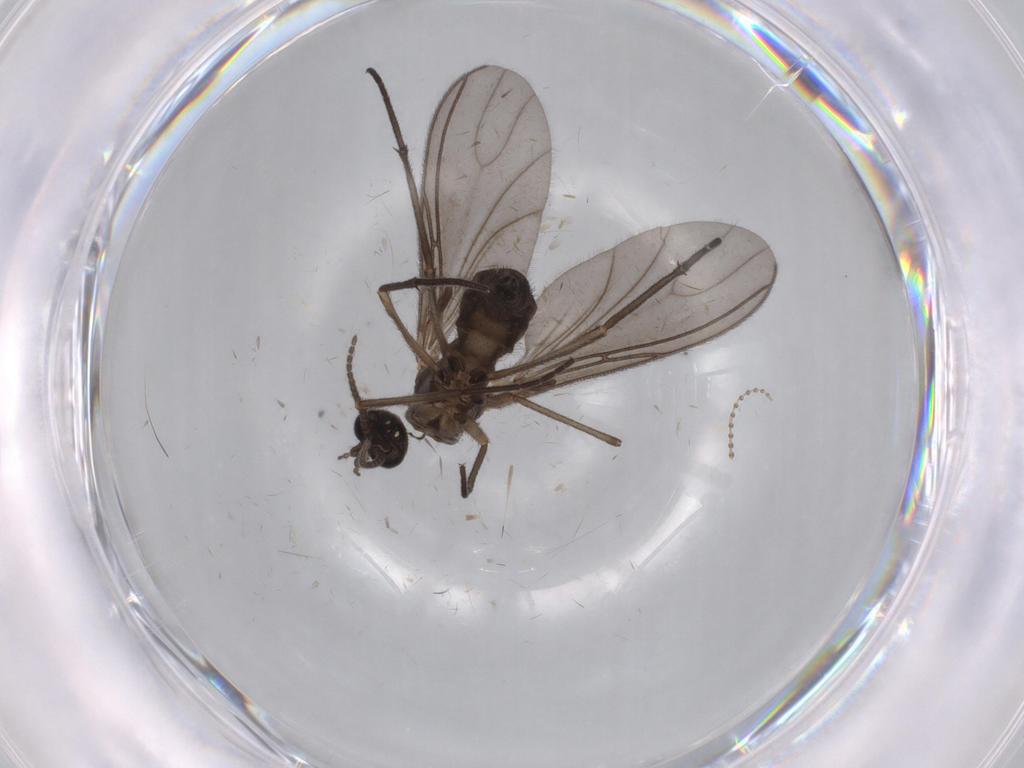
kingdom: Animalia
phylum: Arthropoda
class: Insecta
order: Diptera
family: Sciaridae
